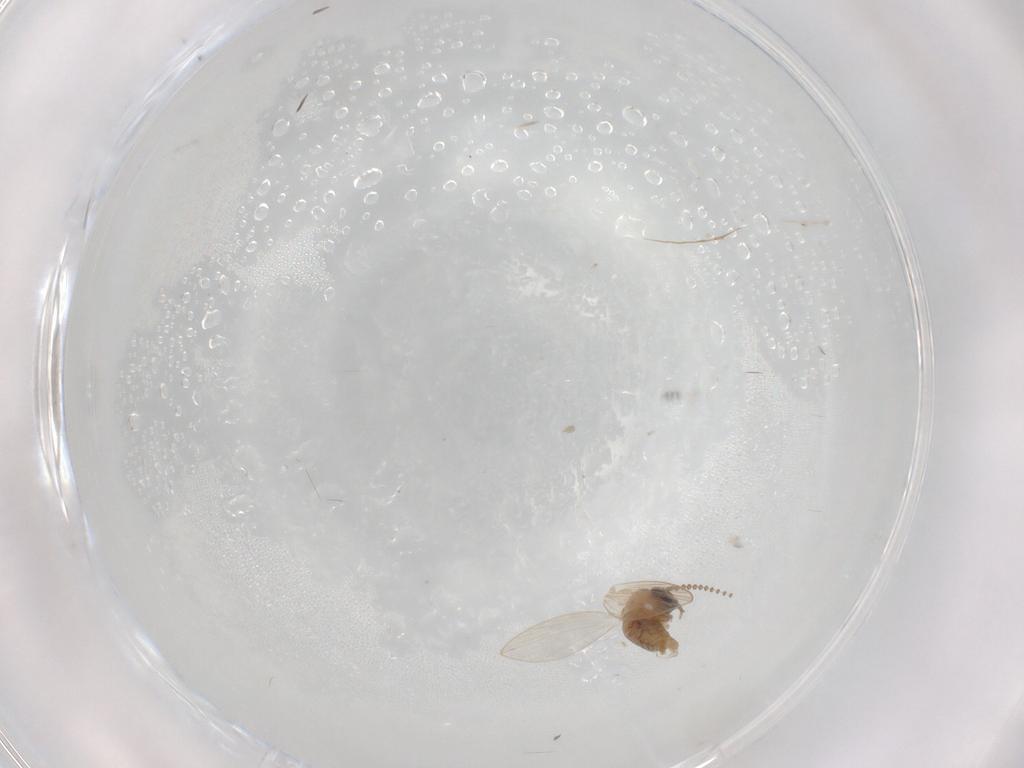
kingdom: Animalia
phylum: Arthropoda
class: Insecta
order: Diptera
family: Psychodidae
